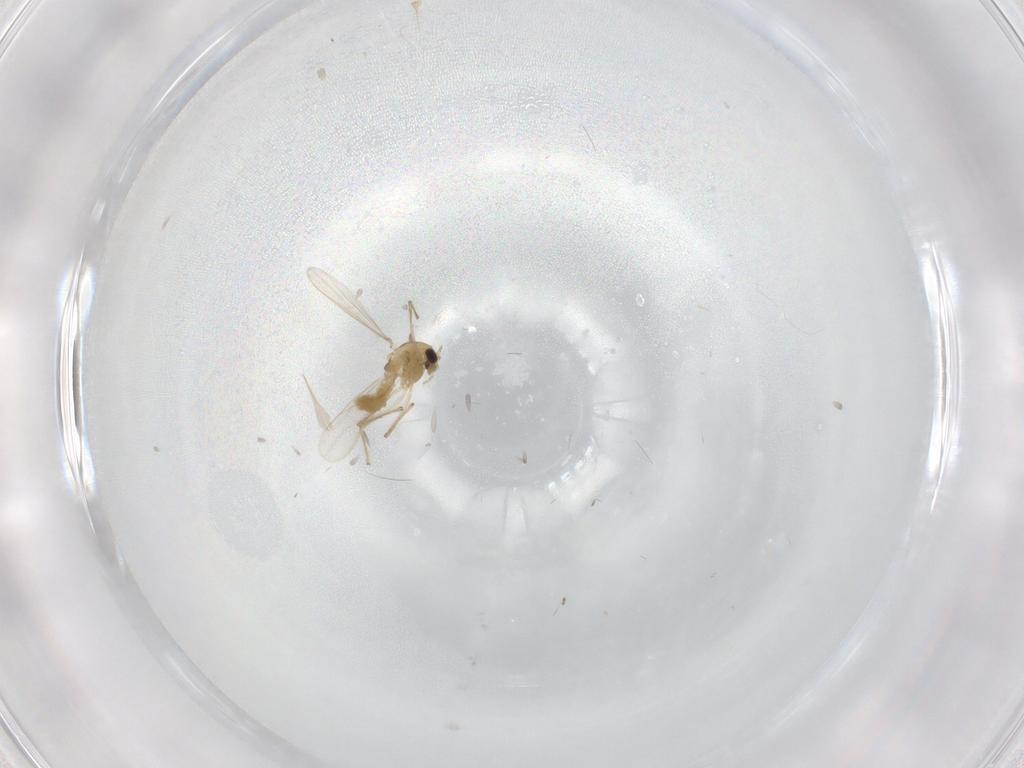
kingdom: Animalia
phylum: Arthropoda
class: Insecta
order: Diptera
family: Chironomidae
